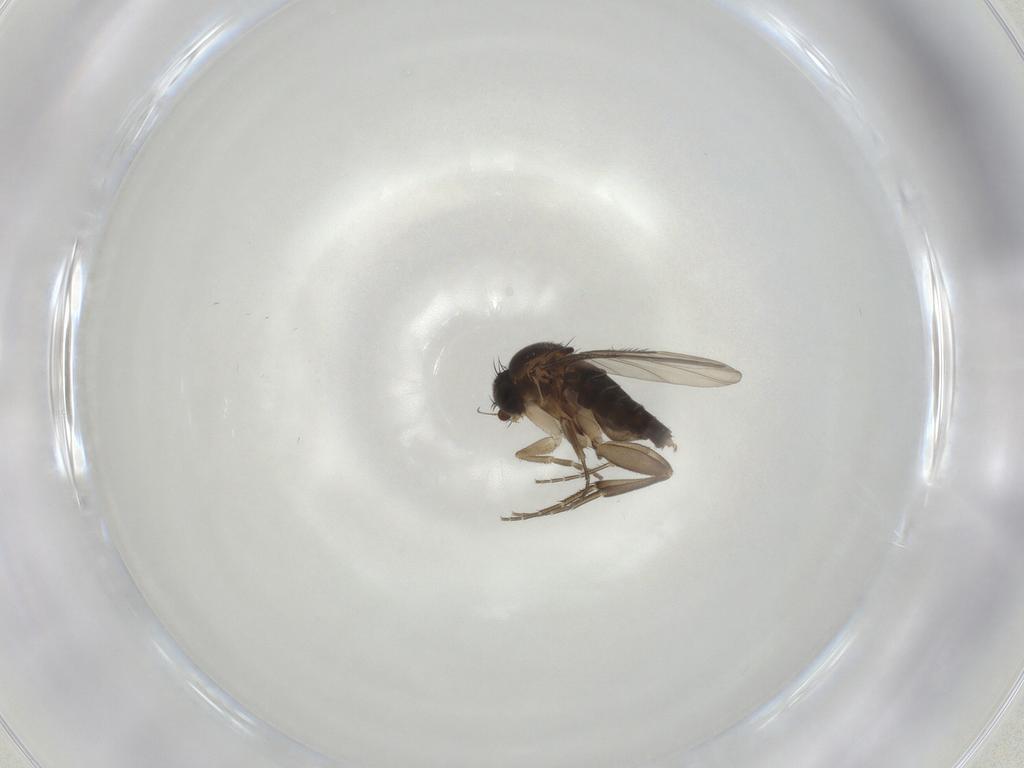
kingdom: Animalia
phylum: Arthropoda
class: Insecta
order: Diptera
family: Phoridae
